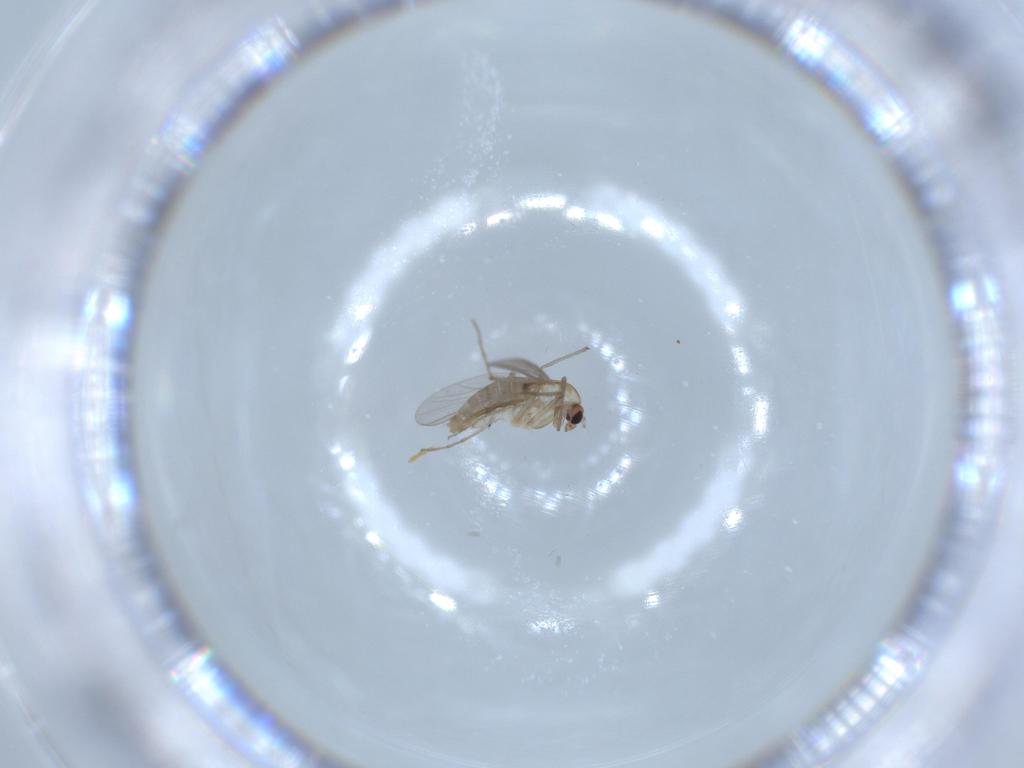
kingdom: Animalia
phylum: Arthropoda
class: Insecta
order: Diptera
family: Chironomidae
